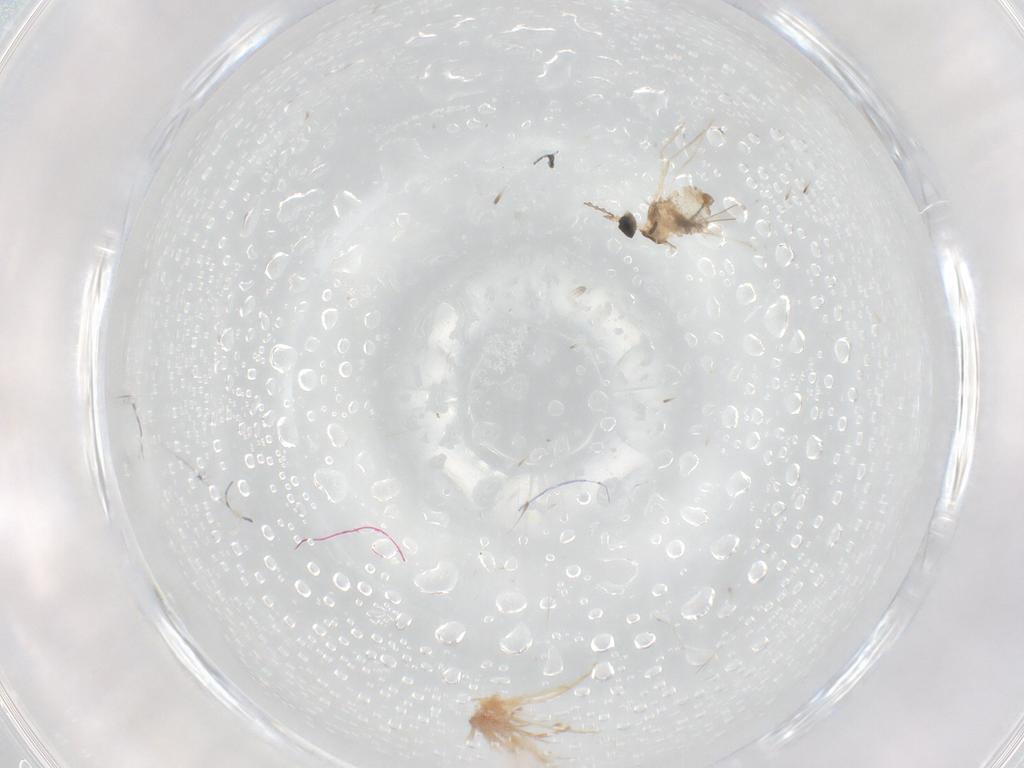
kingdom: Animalia
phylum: Arthropoda
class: Insecta
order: Diptera
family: Cecidomyiidae
